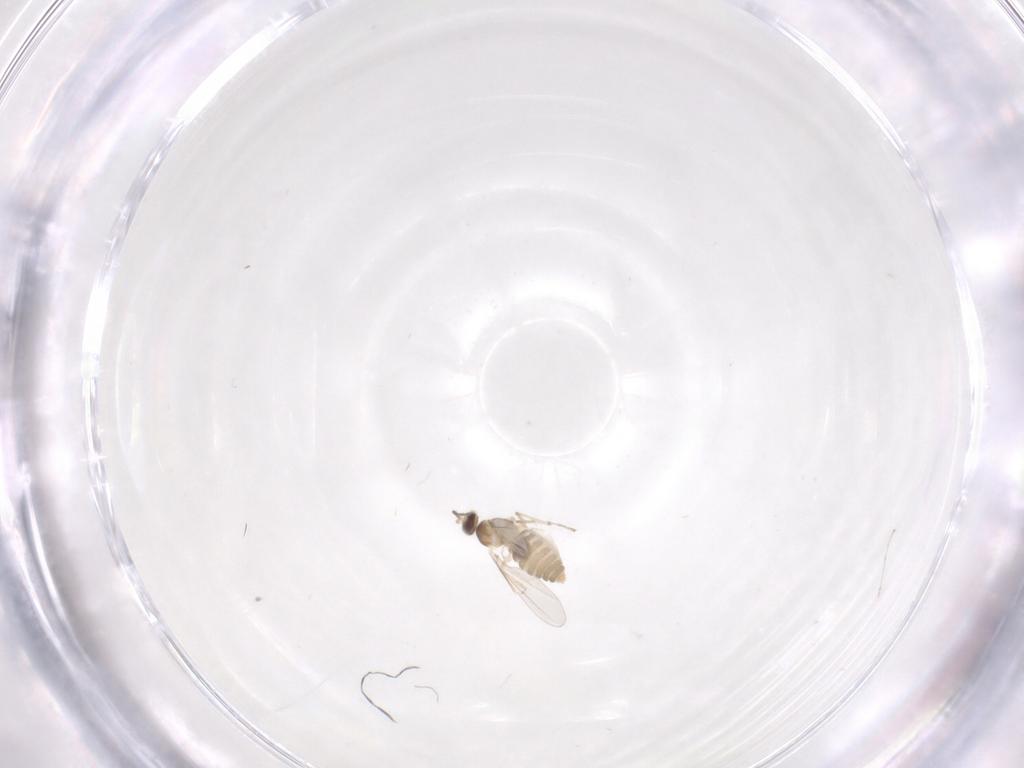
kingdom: Animalia
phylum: Arthropoda
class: Insecta
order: Diptera
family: Cecidomyiidae
